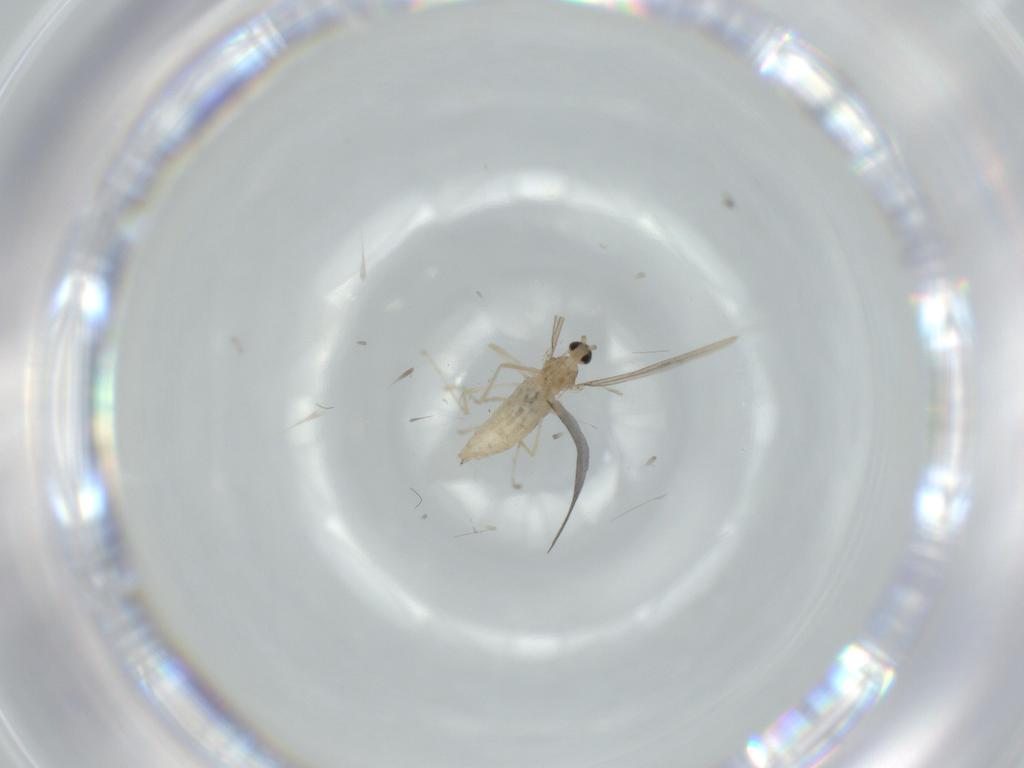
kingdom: Animalia
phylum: Arthropoda
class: Insecta
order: Diptera
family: Cecidomyiidae
